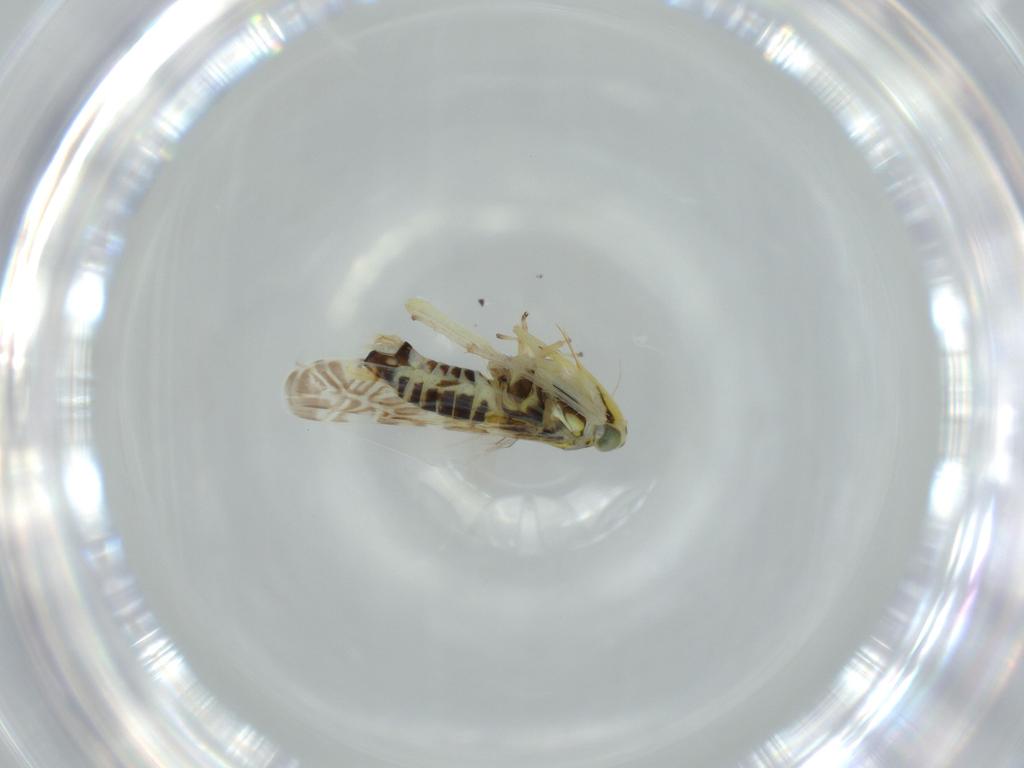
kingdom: Animalia
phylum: Arthropoda
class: Insecta
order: Hemiptera
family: Cicadellidae
